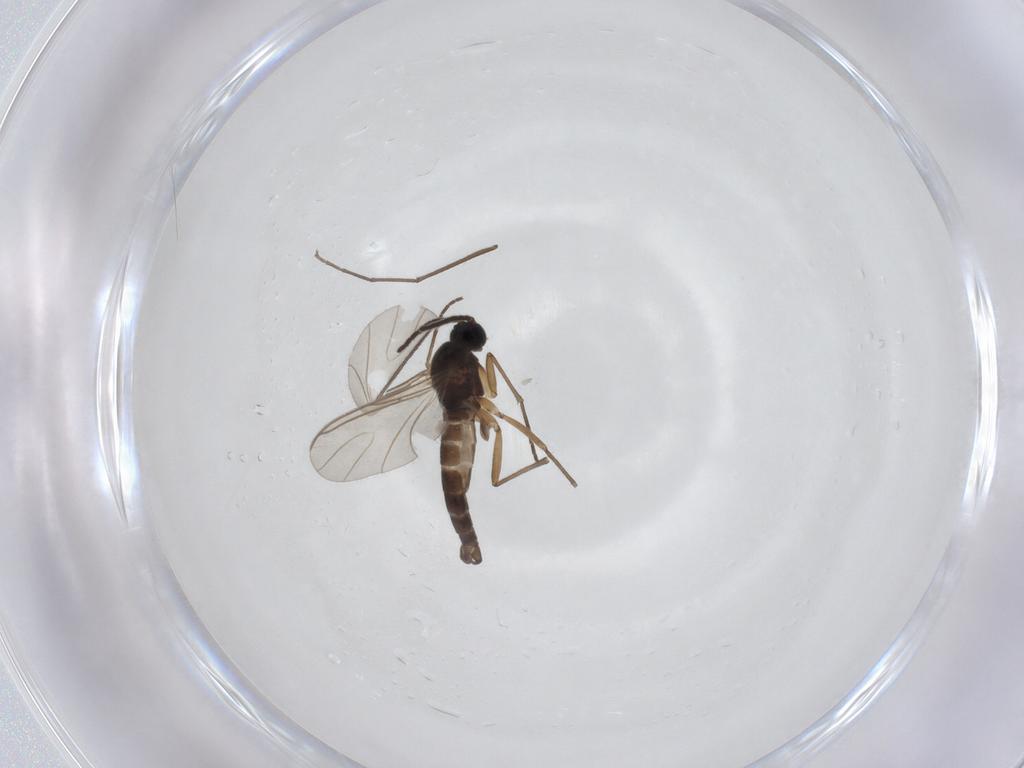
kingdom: Animalia
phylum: Arthropoda
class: Insecta
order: Diptera
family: Chironomidae
